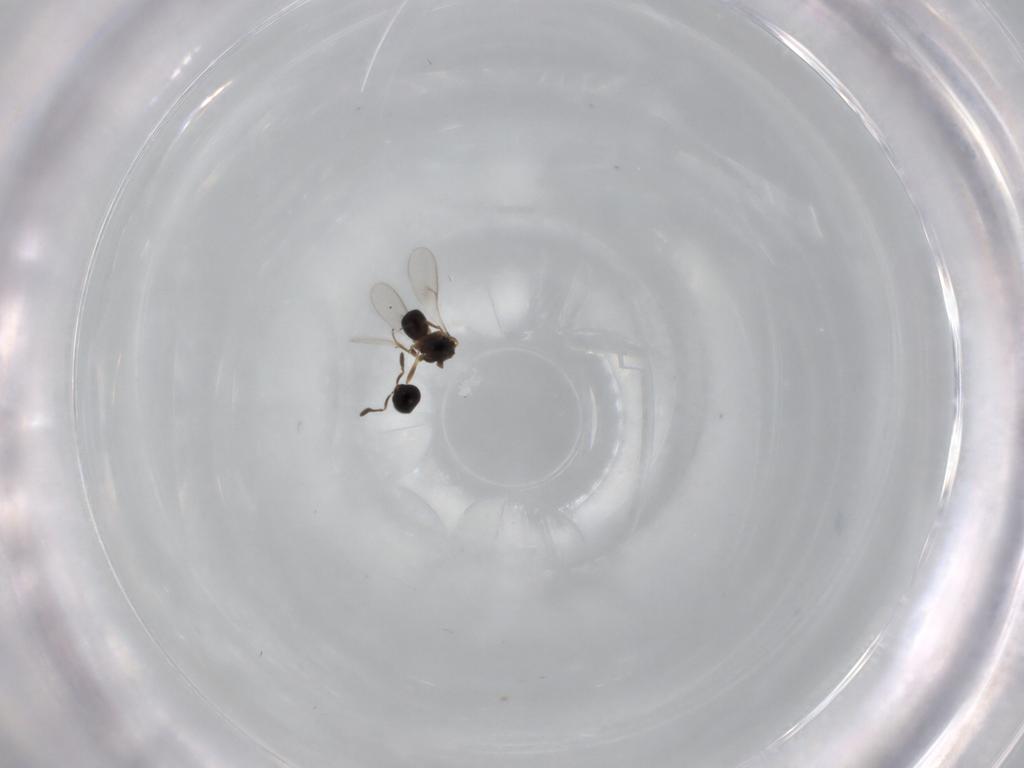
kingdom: Animalia
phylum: Arthropoda
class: Insecta
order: Hymenoptera
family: Scelionidae
